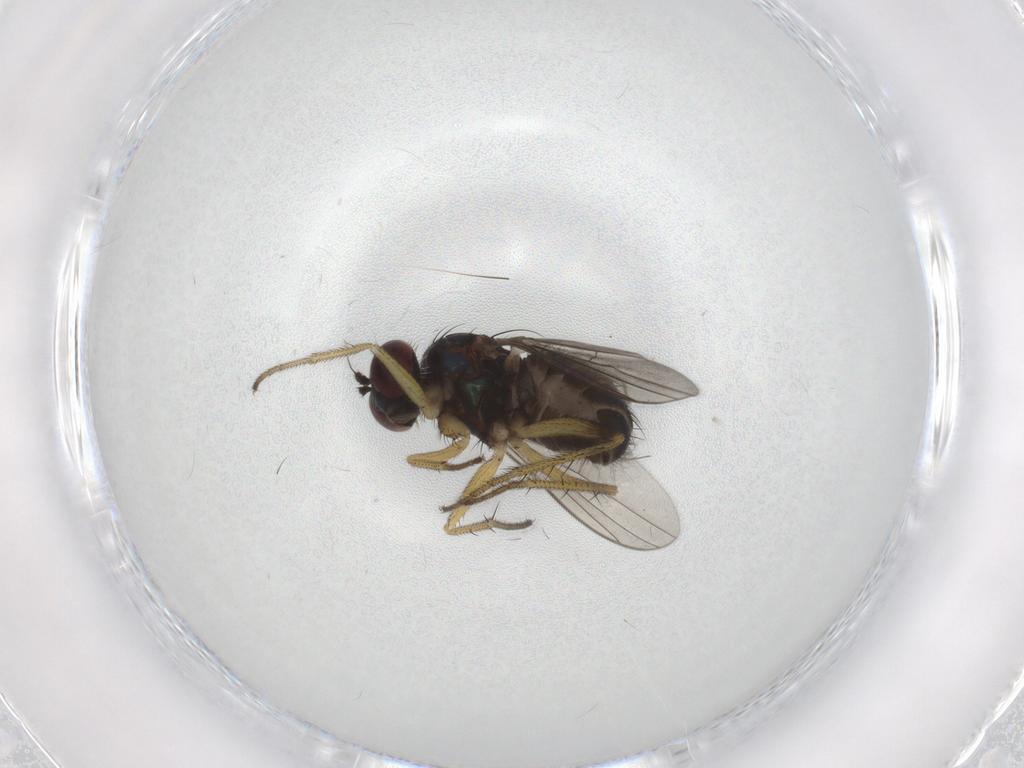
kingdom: Animalia
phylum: Arthropoda
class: Insecta
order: Diptera
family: Dolichopodidae
